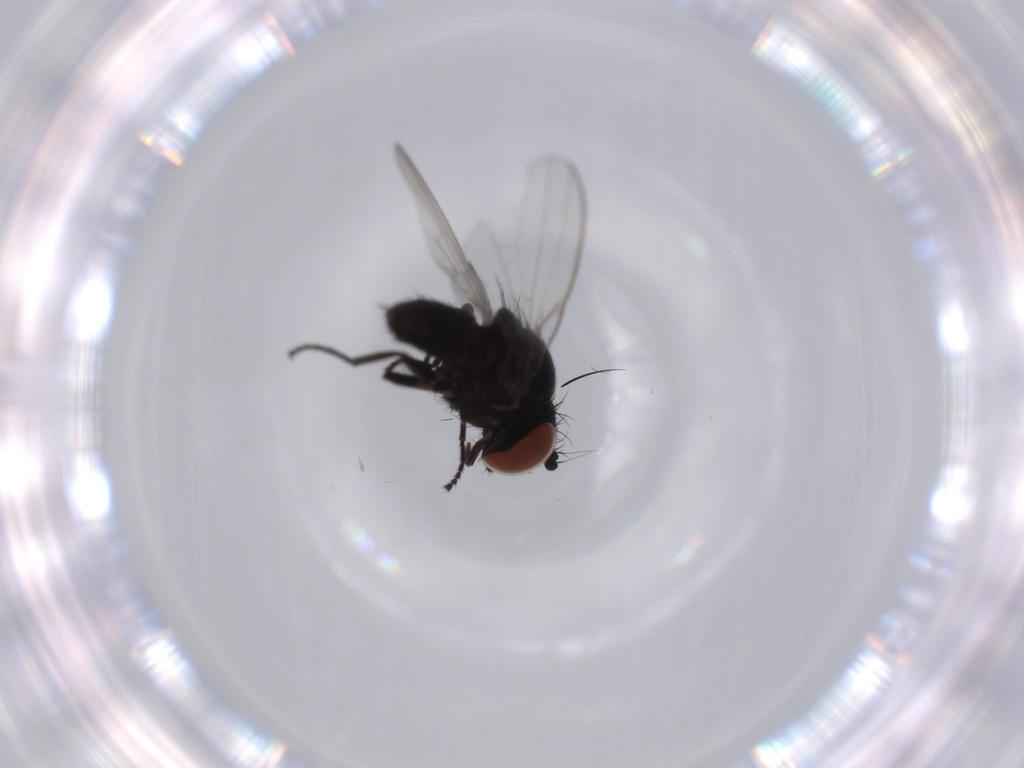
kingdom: Animalia
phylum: Arthropoda
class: Insecta
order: Diptera
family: Milichiidae
